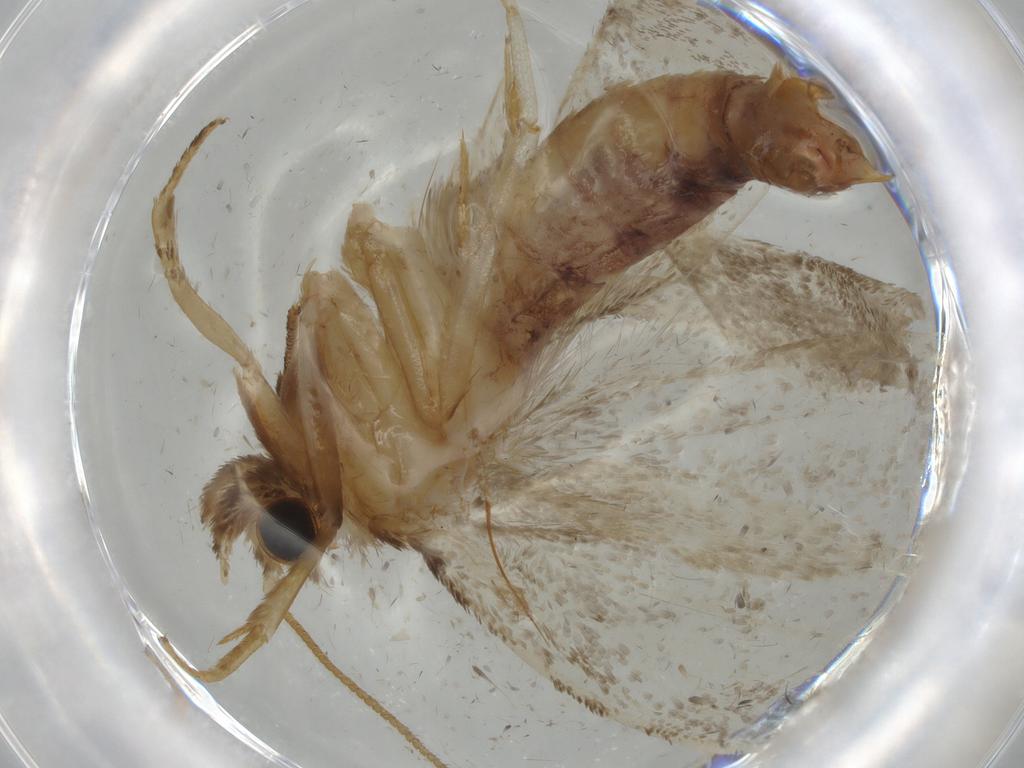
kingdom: Animalia
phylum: Arthropoda
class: Insecta
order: Lepidoptera
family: Tineidae
